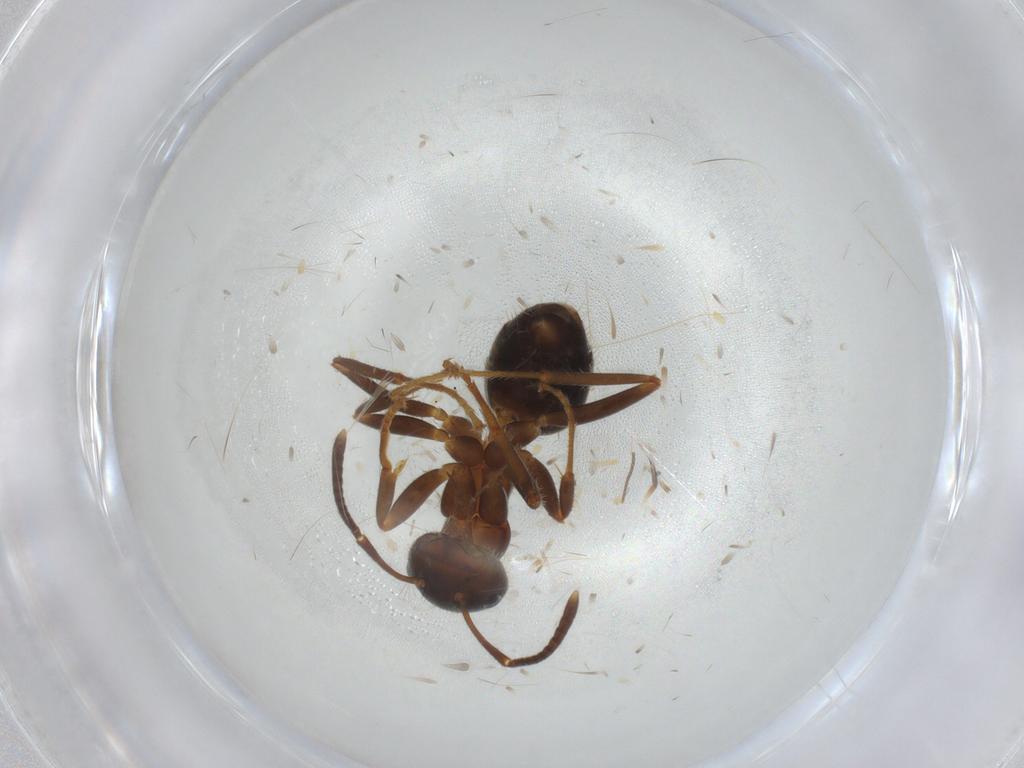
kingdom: Animalia
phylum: Arthropoda
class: Insecta
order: Hymenoptera
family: Formicidae
